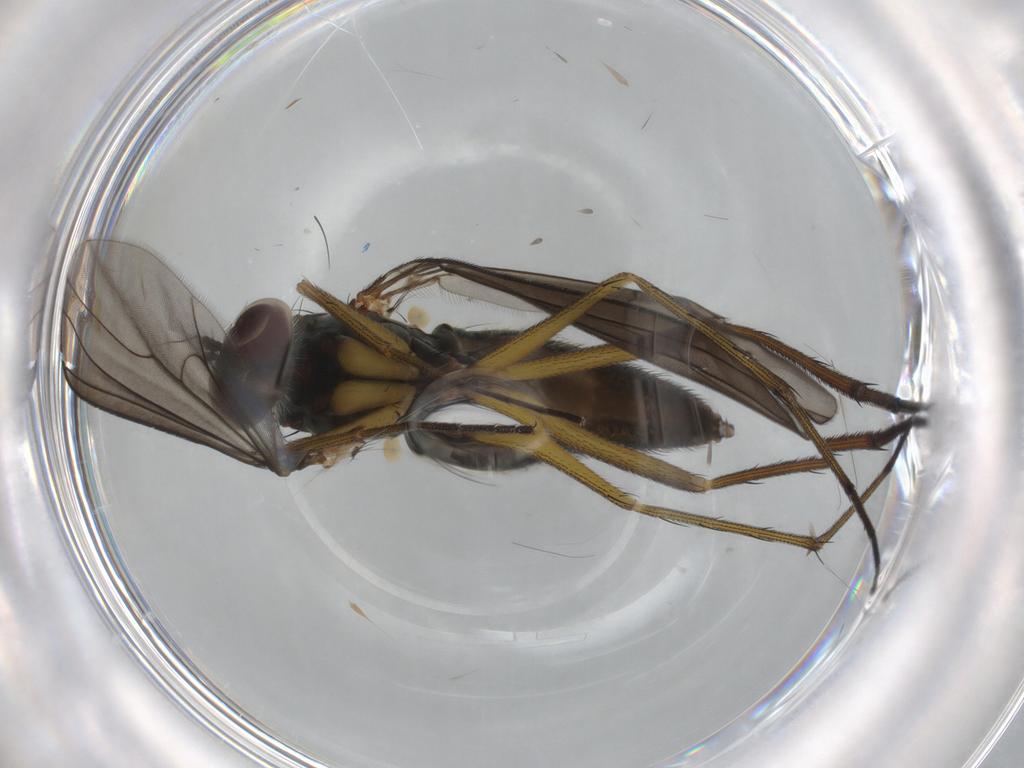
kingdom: Animalia
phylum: Arthropoda
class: Insecta
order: Diptera
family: Dolichopodidae
